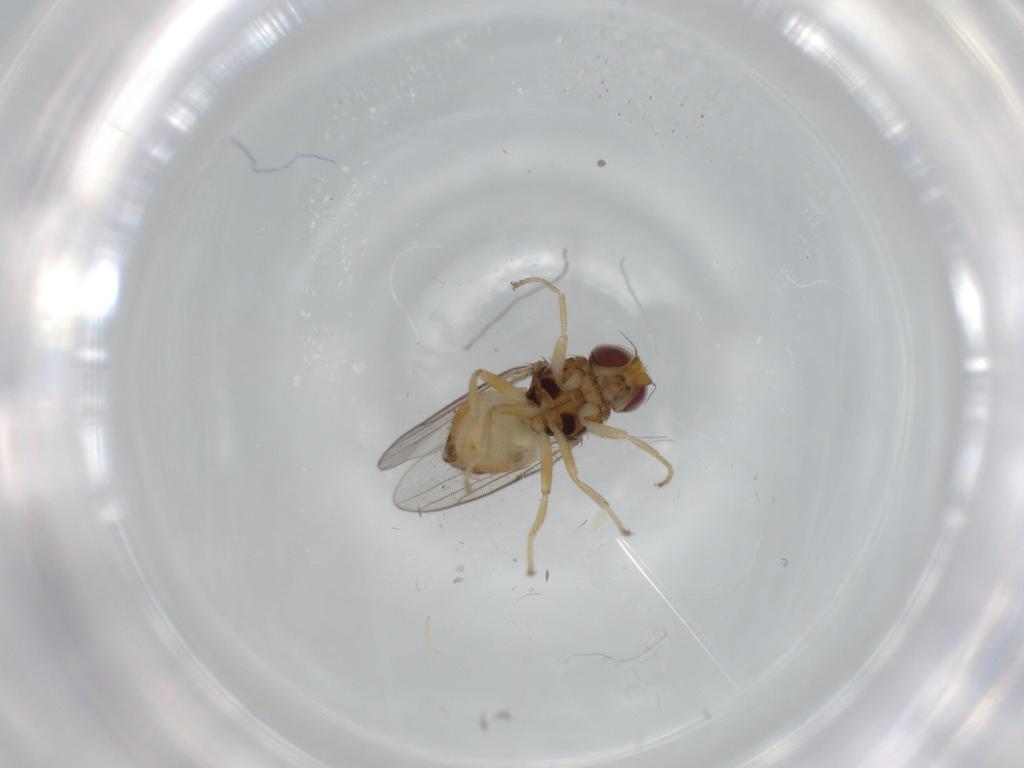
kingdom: Animalia
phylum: Arthropoda
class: Insecta
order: Diptera
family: Chloropidae
